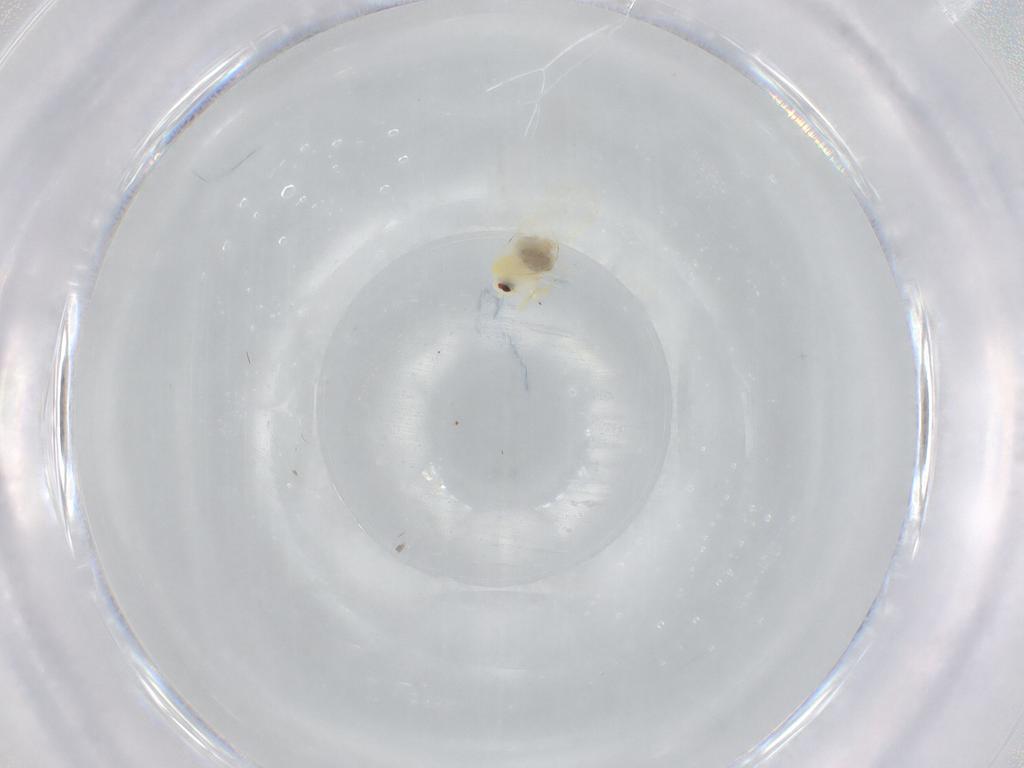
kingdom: Animalia
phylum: Arthropoda
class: Insecta
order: Hemiptera
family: Aleyrodidae
